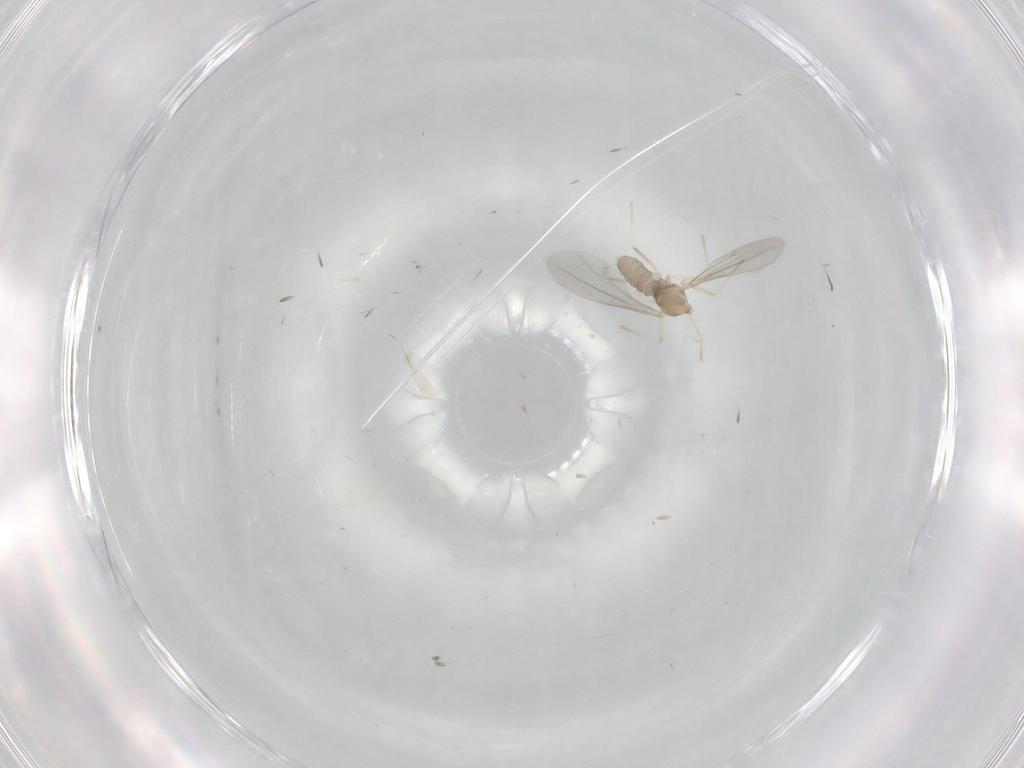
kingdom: Animalia
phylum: Arthropoda
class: Insecta
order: Diptera
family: Cecidomyiidae
